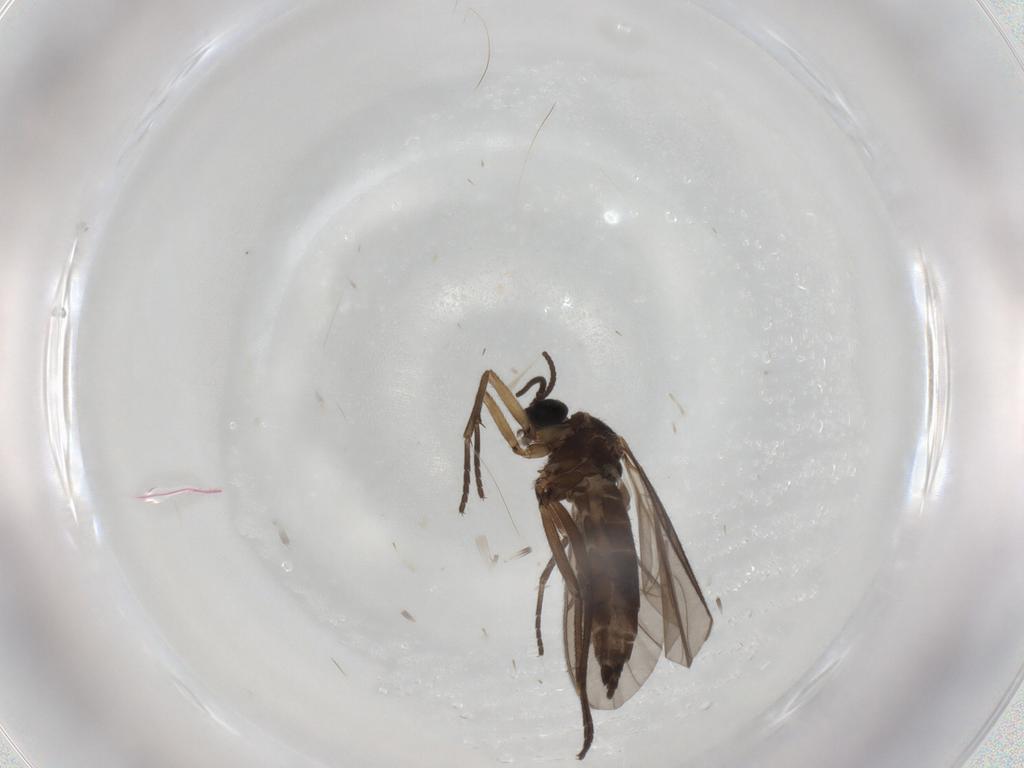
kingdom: Animalia
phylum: Arthropoda
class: Insecta
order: Diptera
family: Sciaridae
